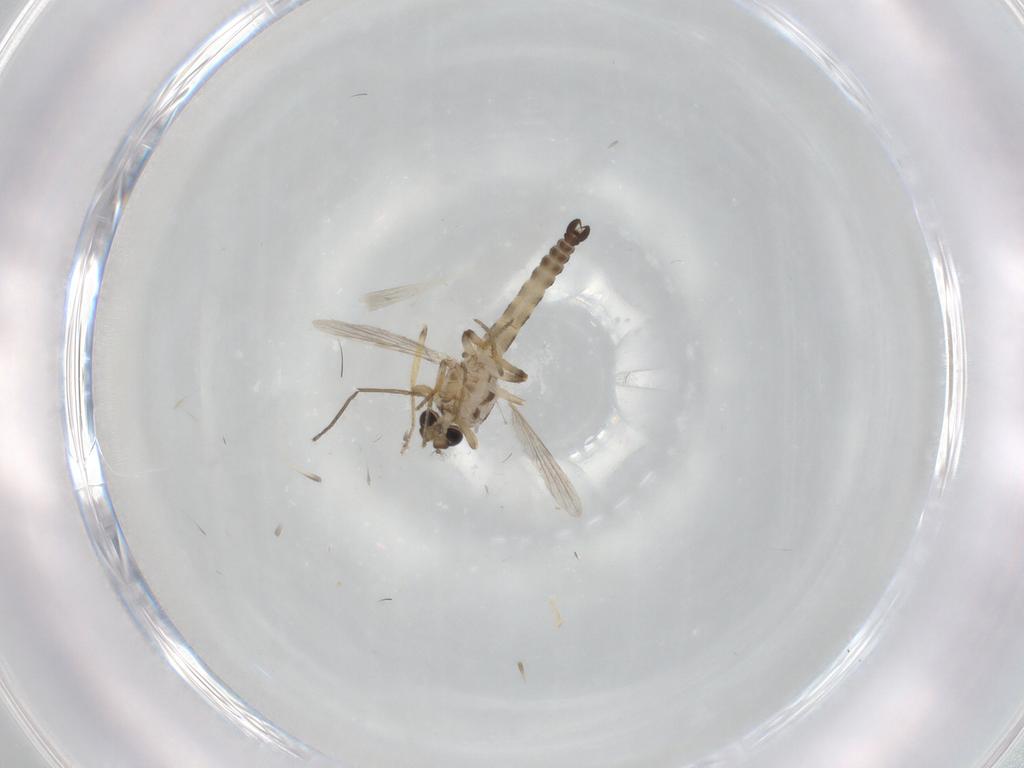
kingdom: Animalia
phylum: Arthropoda
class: Insecta
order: Diptera
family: Ceratopogonidae
